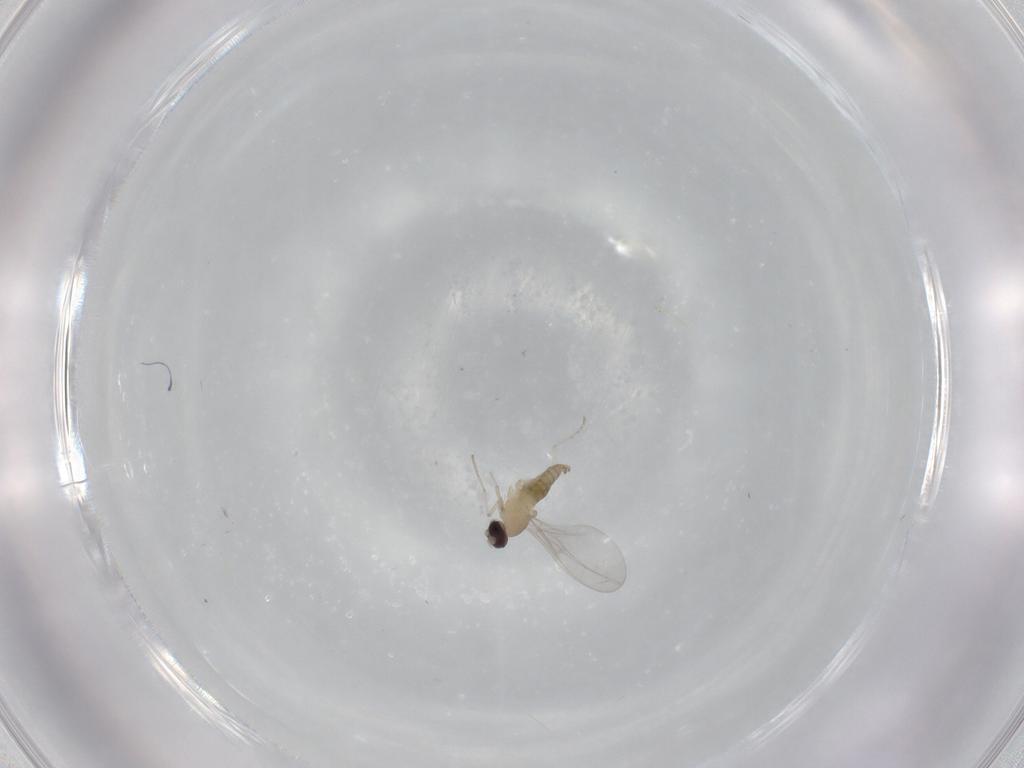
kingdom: Animalia
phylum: Arthropoda
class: Insecta
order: Diptera
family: Cecidomyiidae
